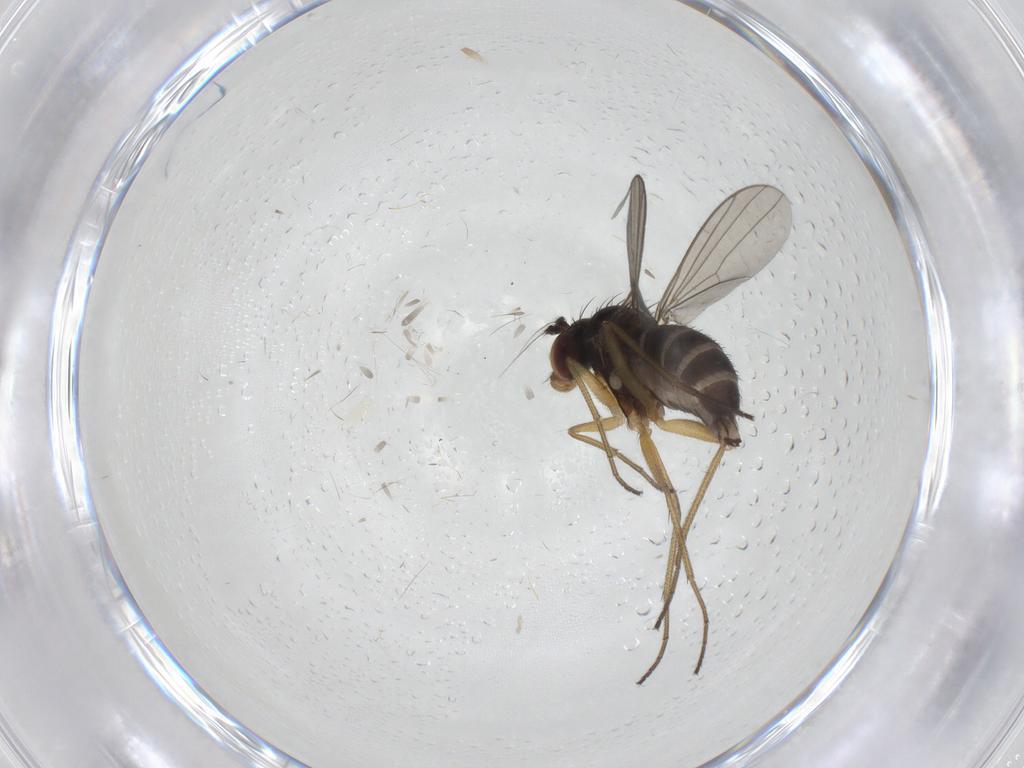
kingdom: Animalia
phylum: Arthropoda
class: Insecta
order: Diptera
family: Dolichopodidae
